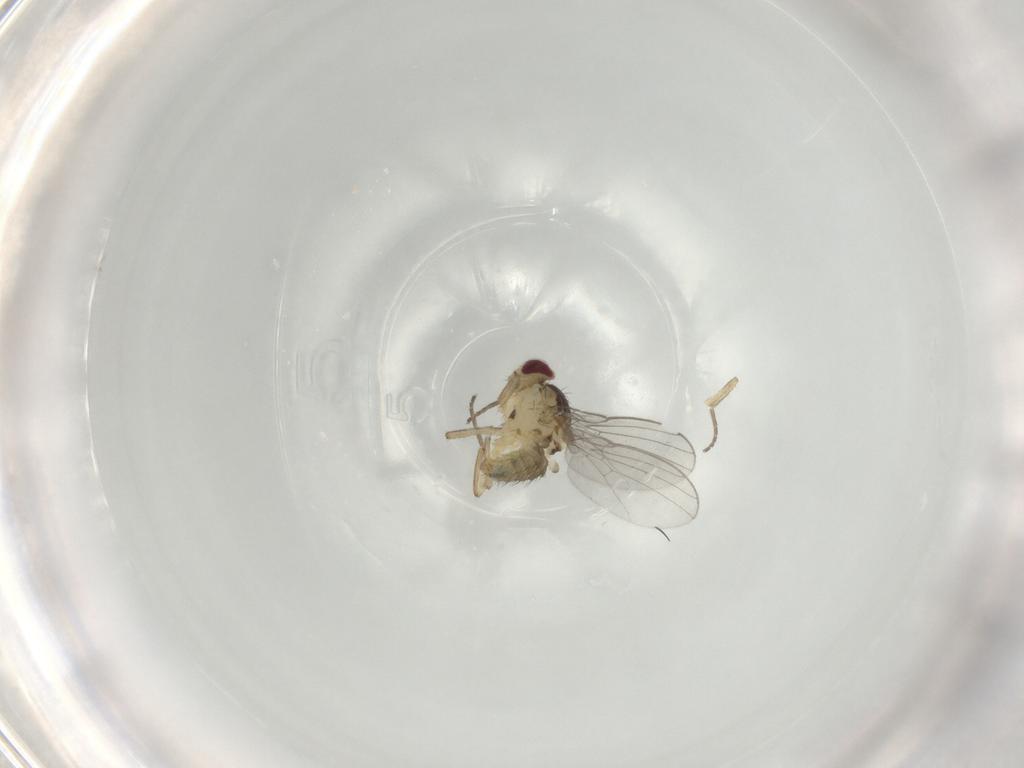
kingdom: Animalia
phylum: Arthropoda
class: Insecta
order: Diptera
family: Agromyzidae
